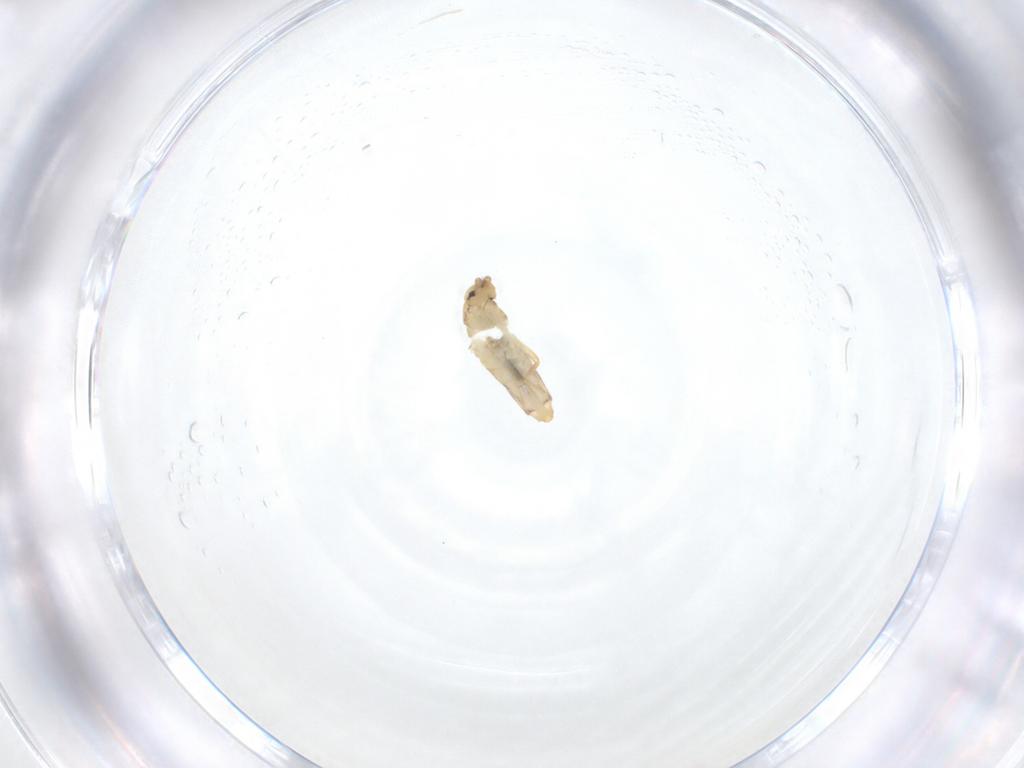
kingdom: Animalia
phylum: Arthropoda
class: Collembola
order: Entomobryomorpha
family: Entomobryidae
